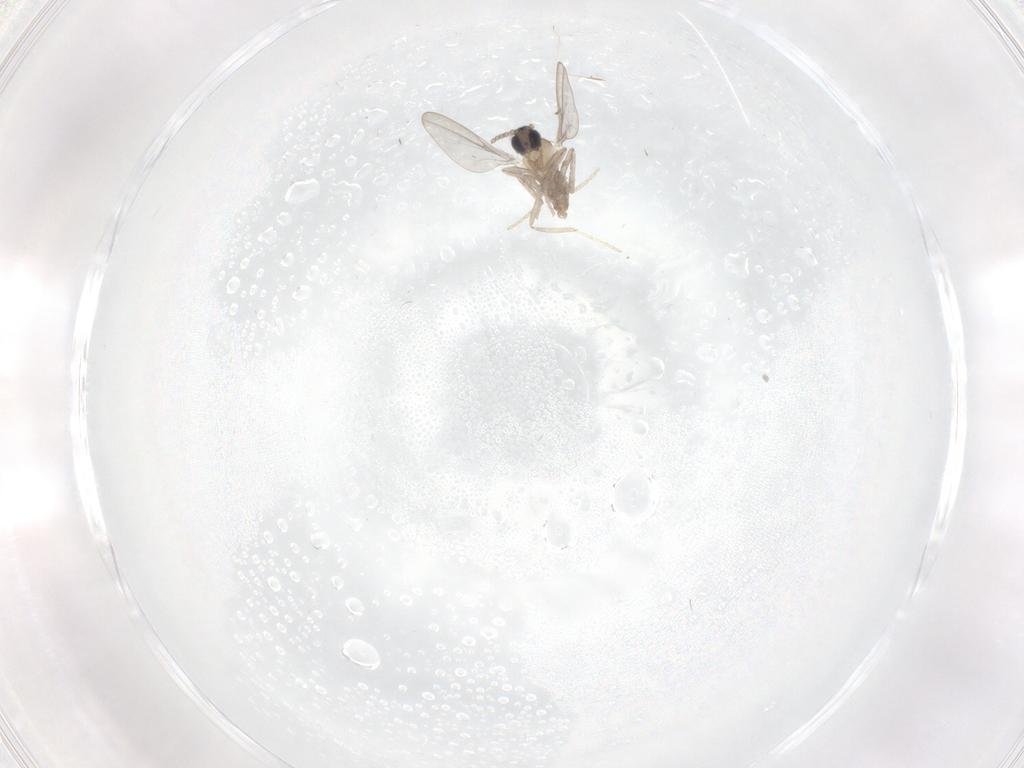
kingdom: Animalia
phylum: Arthropoda
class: Insecta
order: Diptera
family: Cecidomyiidae
